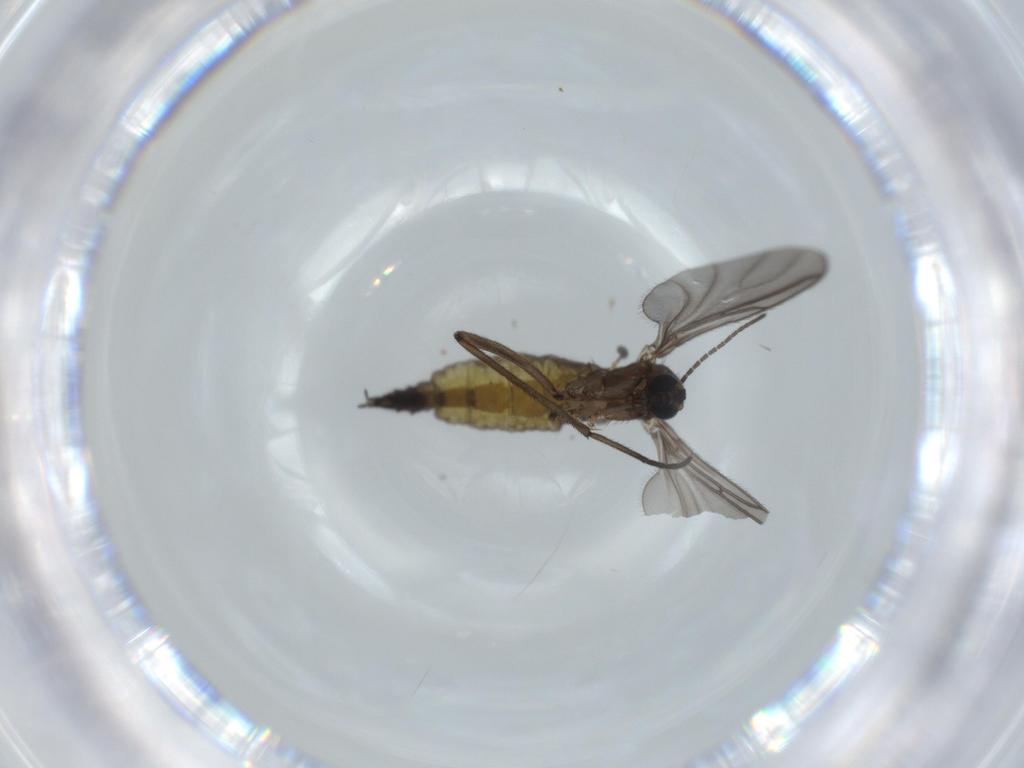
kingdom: Animalia
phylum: Arthropoda
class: Insecta
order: Diptera
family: Sciaridae
